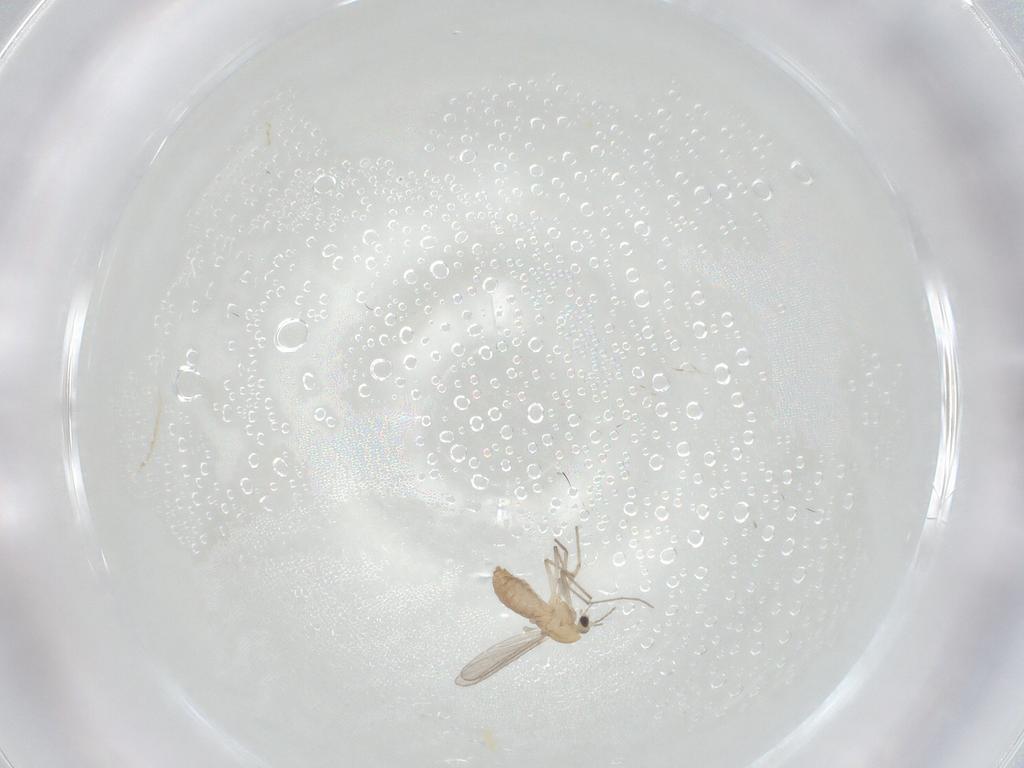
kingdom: Animalia
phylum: Arthropoda
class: Insecta
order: Diptera
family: Chironomidae
